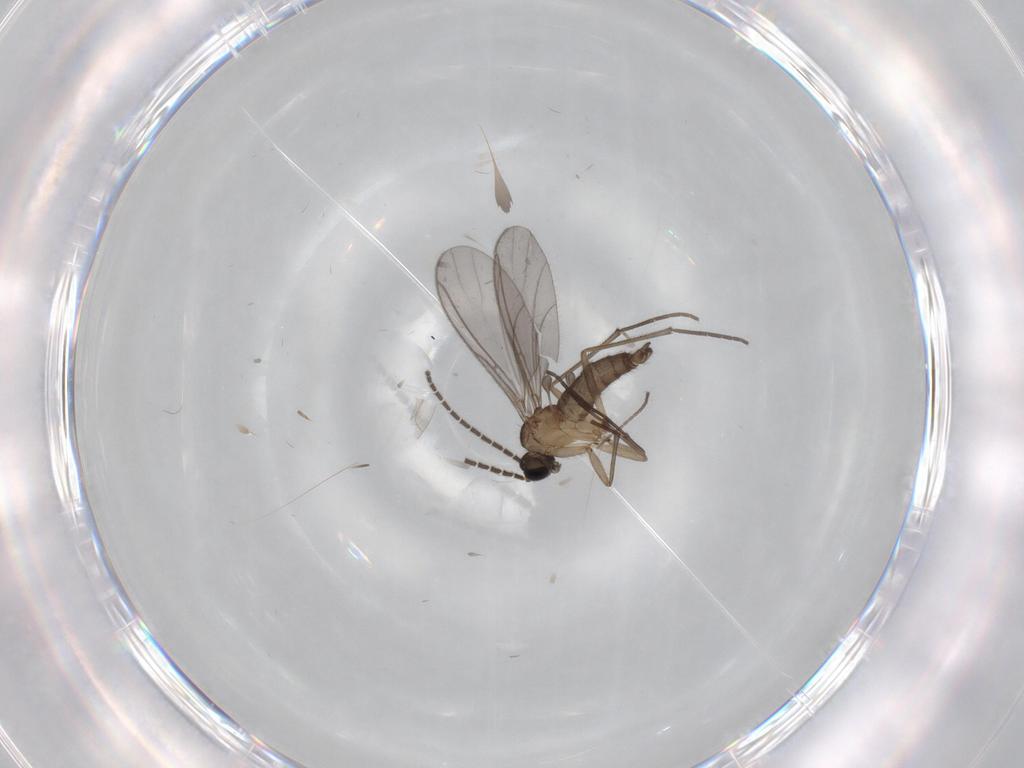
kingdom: Animalia
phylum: Arthropoda
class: Insecta
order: Diptera
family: Sciaridae
